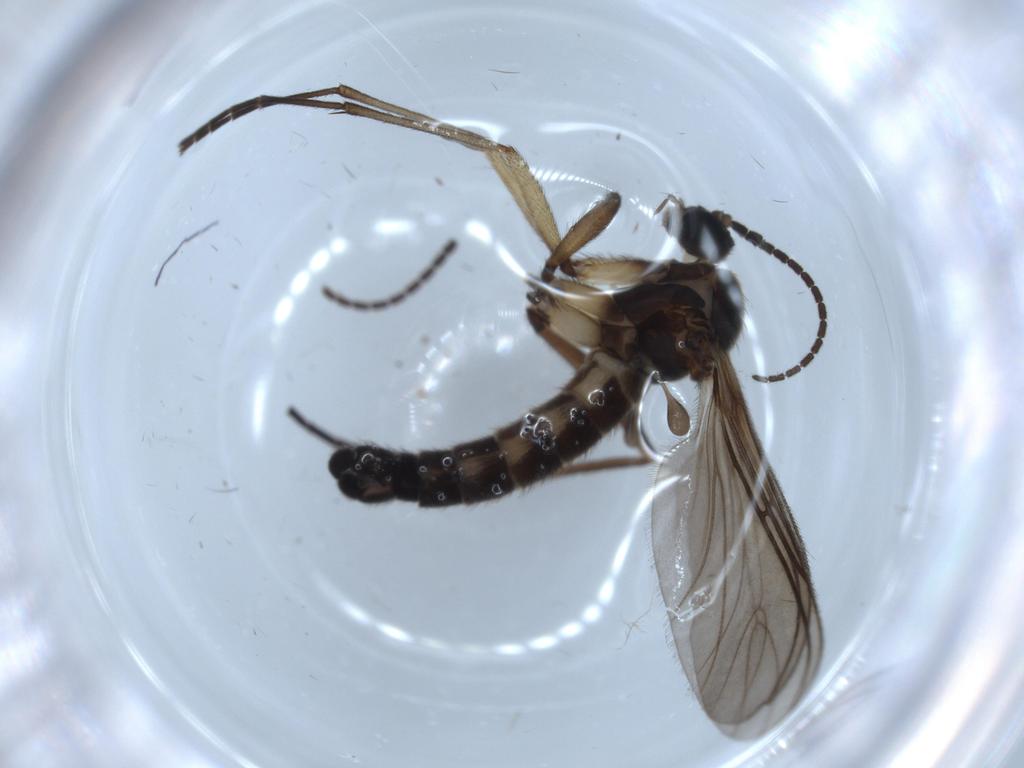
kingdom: Animalia
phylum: Arthropoda
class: Insecta
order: Diptera
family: Sciaridae
